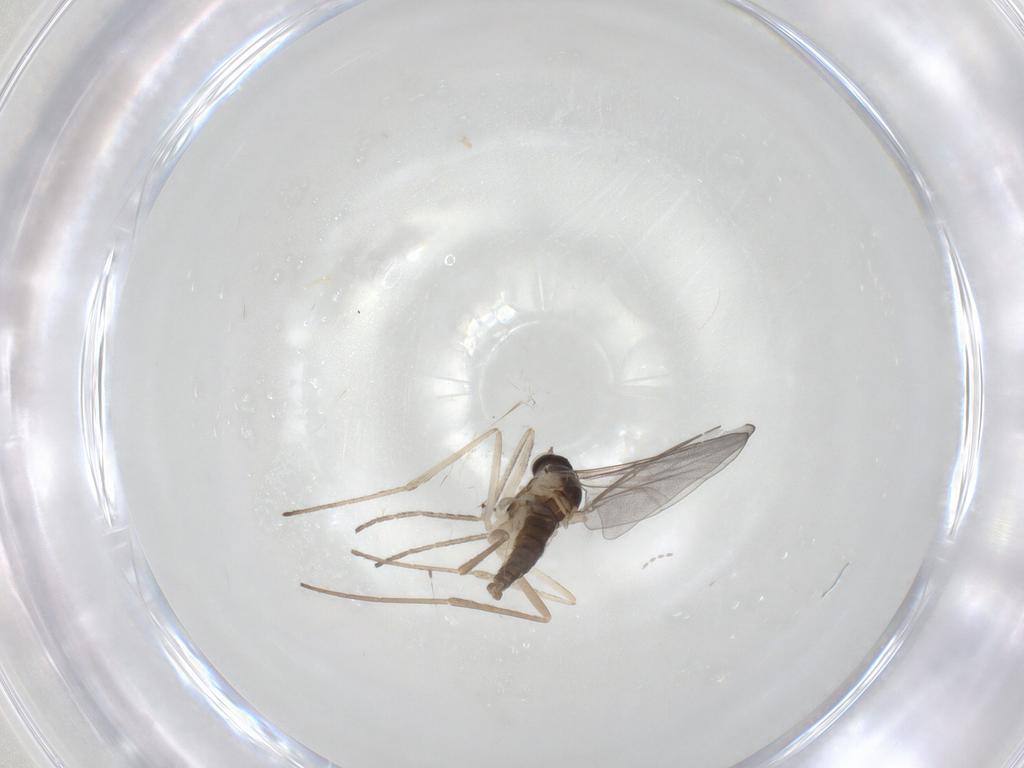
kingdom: Animalia
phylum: Arthropoda
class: Insecta
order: Diptera
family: Cecidomyiidae
